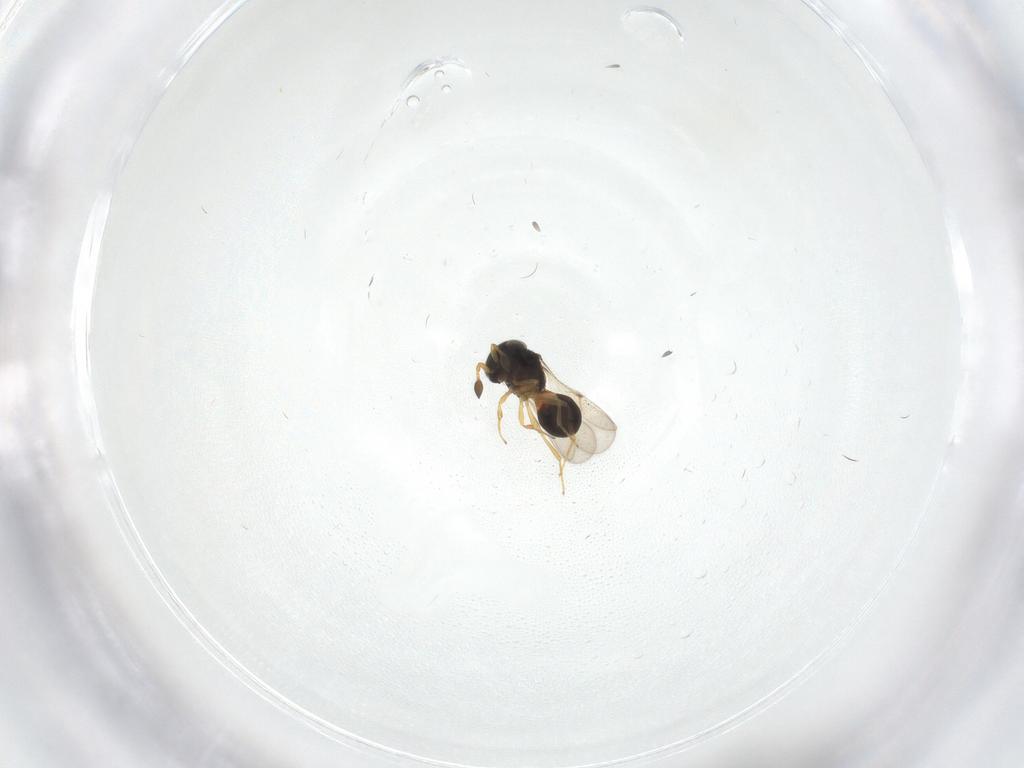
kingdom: Animalia
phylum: Arthropoda
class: Insecta
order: Hymenoptera
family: Scelionidae
